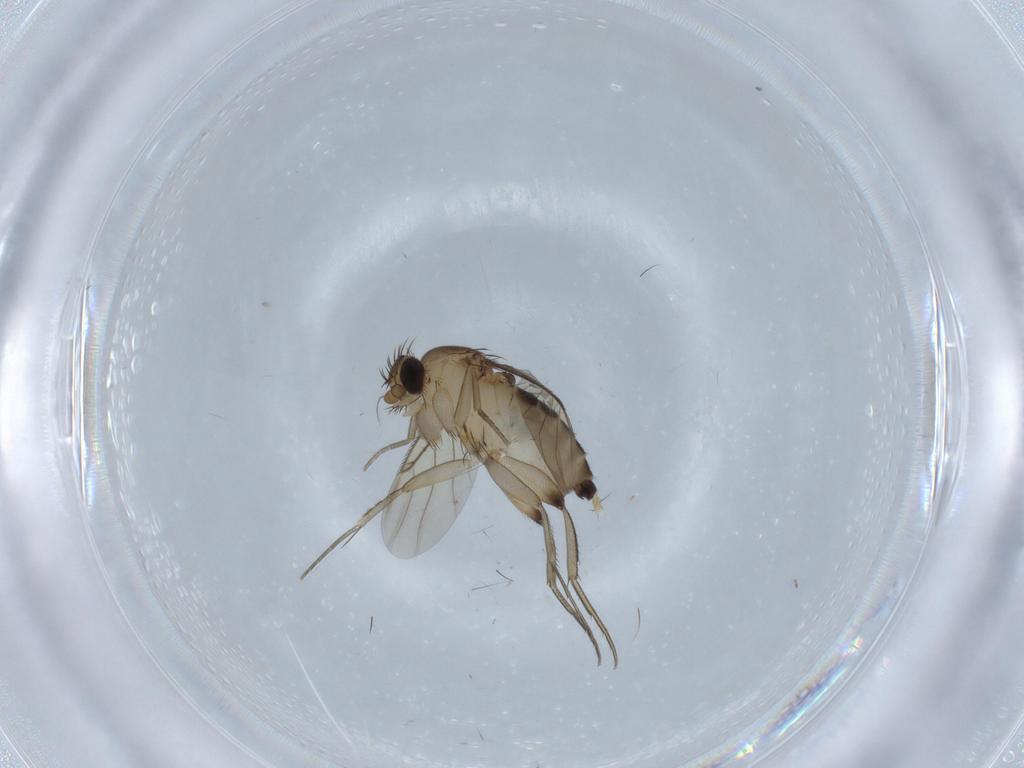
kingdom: Animalia
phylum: Arthropoda
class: Insecta
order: Diptera
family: Phoridae
